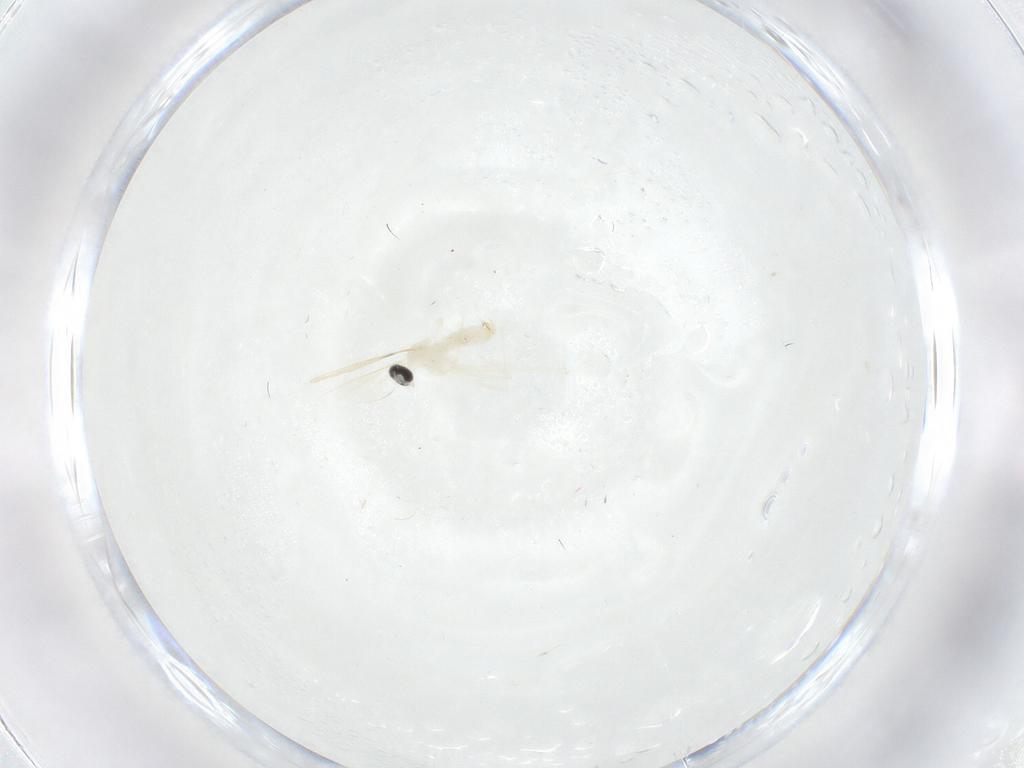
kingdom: Animalia
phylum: Arthropoda
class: Insecta
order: Diptera
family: Cecidomyiidae
